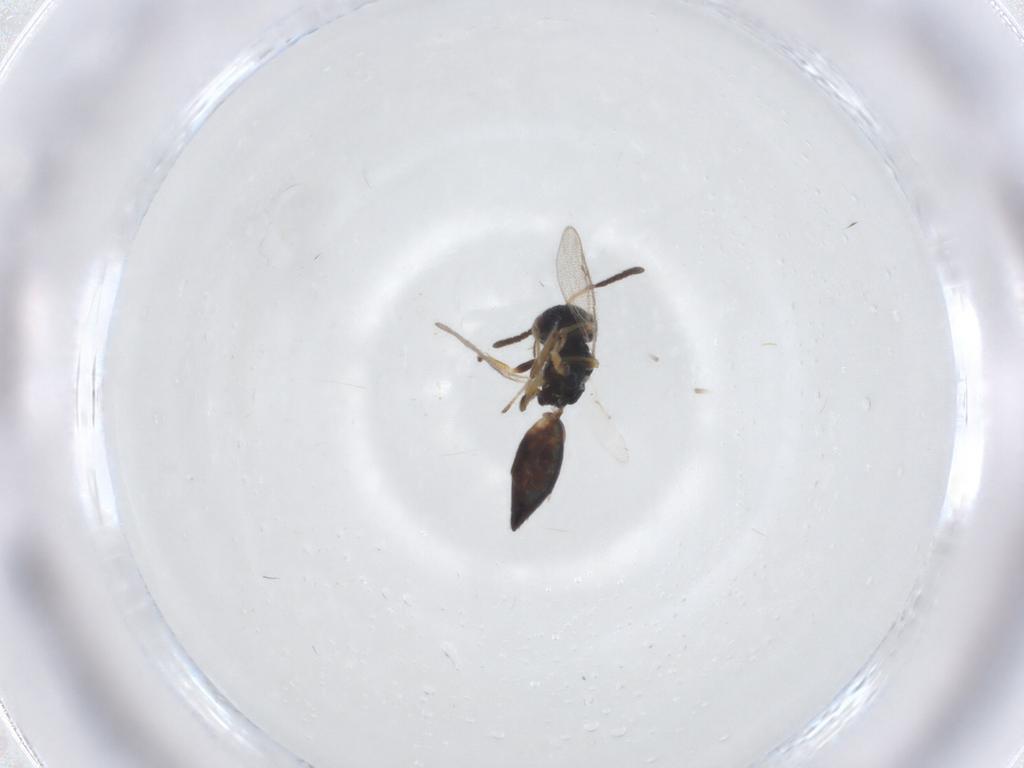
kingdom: Animalia
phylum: Arthropoda
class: Insecta
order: Hymenoptera
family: Pteromalidae
